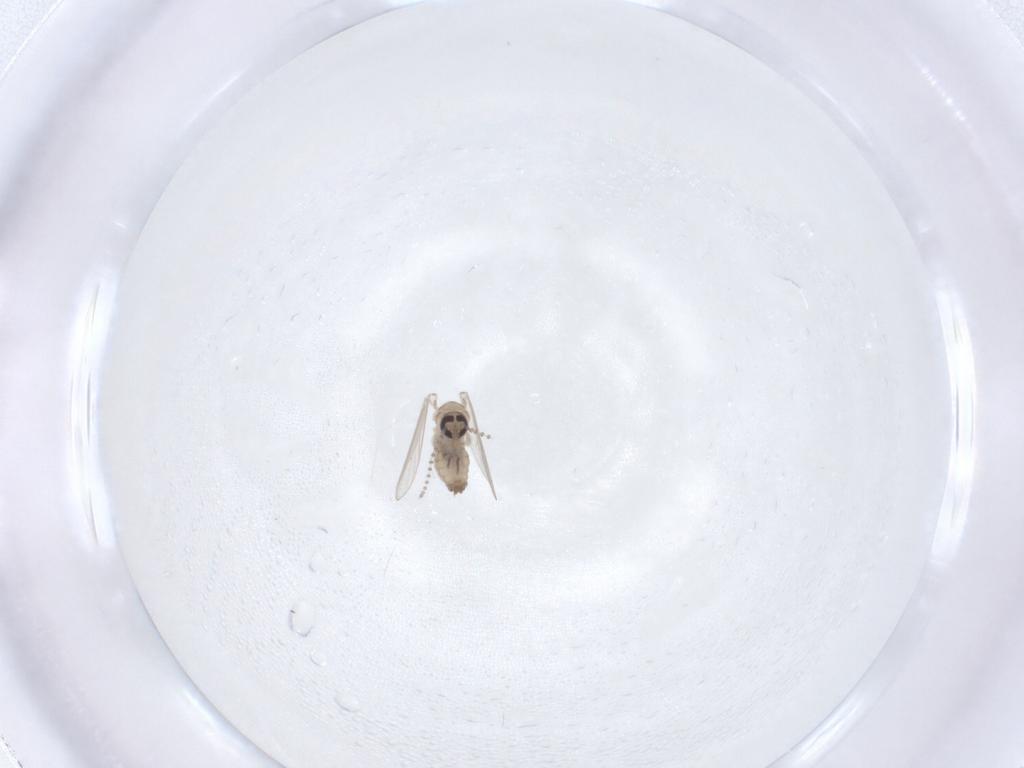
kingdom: Animalia
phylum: Arthropoda
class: Insecta
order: Diptera
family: Psychodidae
